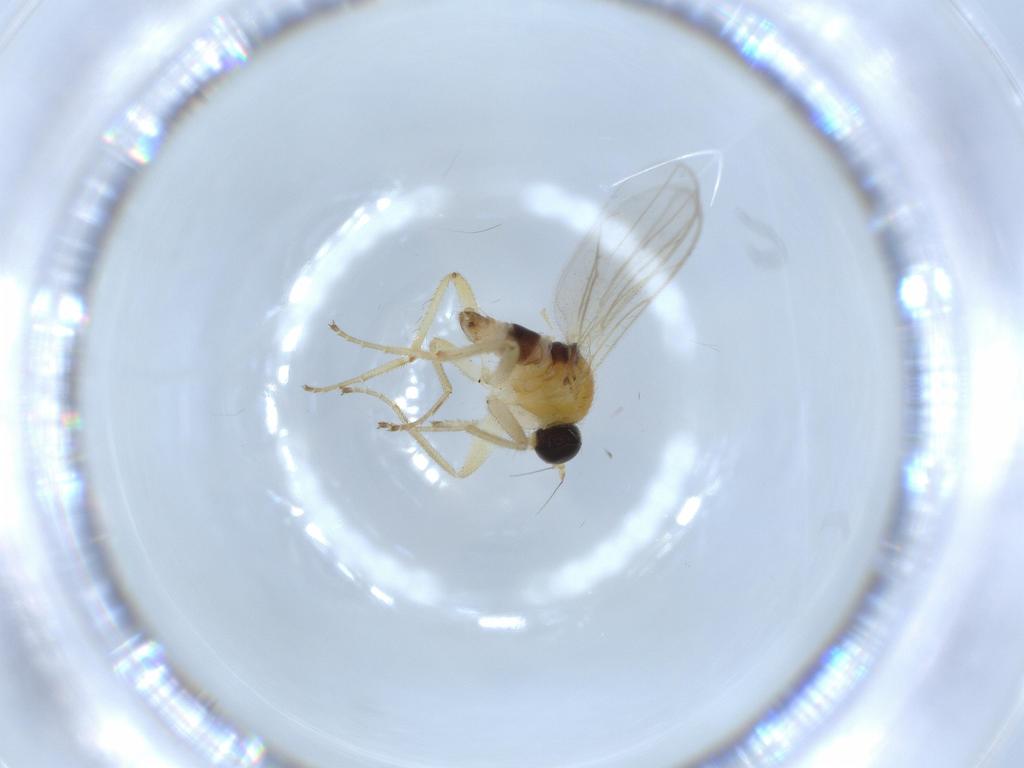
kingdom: Animalia
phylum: Arthropoda
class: Insecta
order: Diptera
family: Hybotidae
